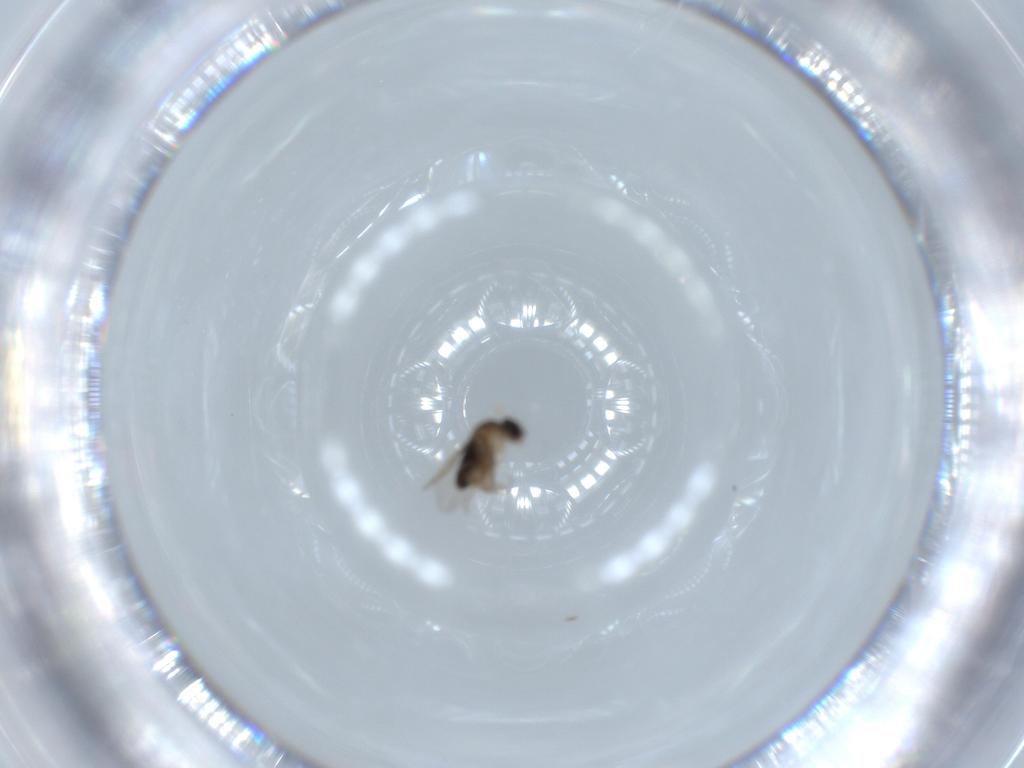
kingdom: Animalia
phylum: Arthropoda
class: Insecta
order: Diptera
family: Phoridae
